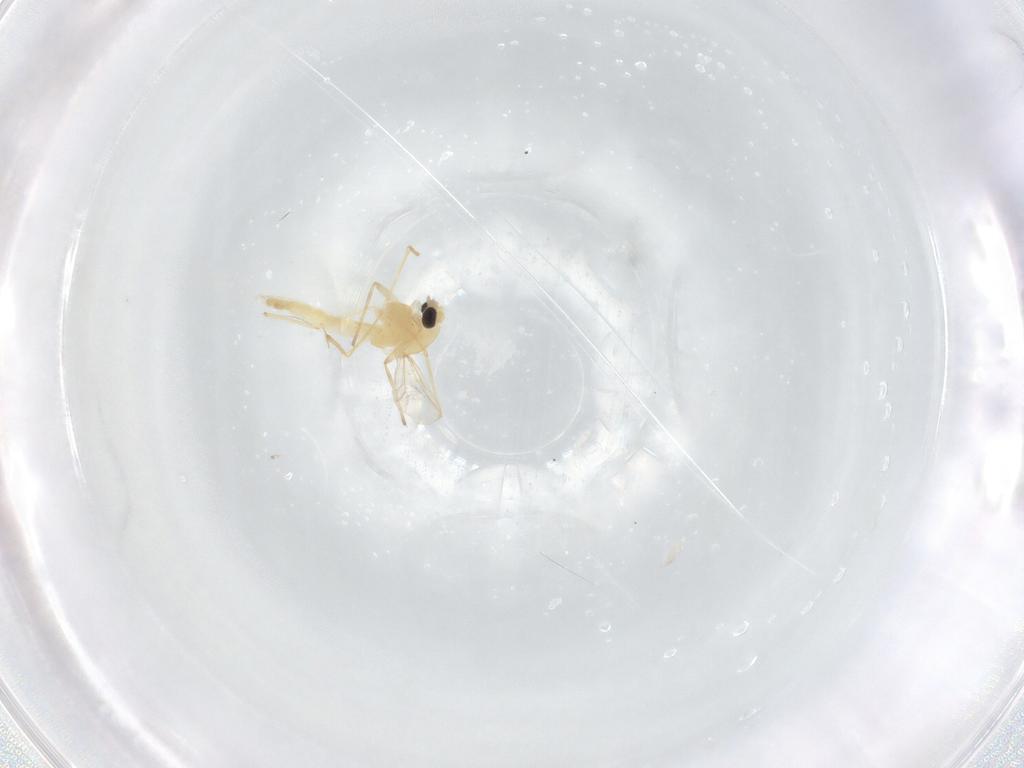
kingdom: Animalia
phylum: Arthropoda
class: Insecta
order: Diptera
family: Chironomidae
